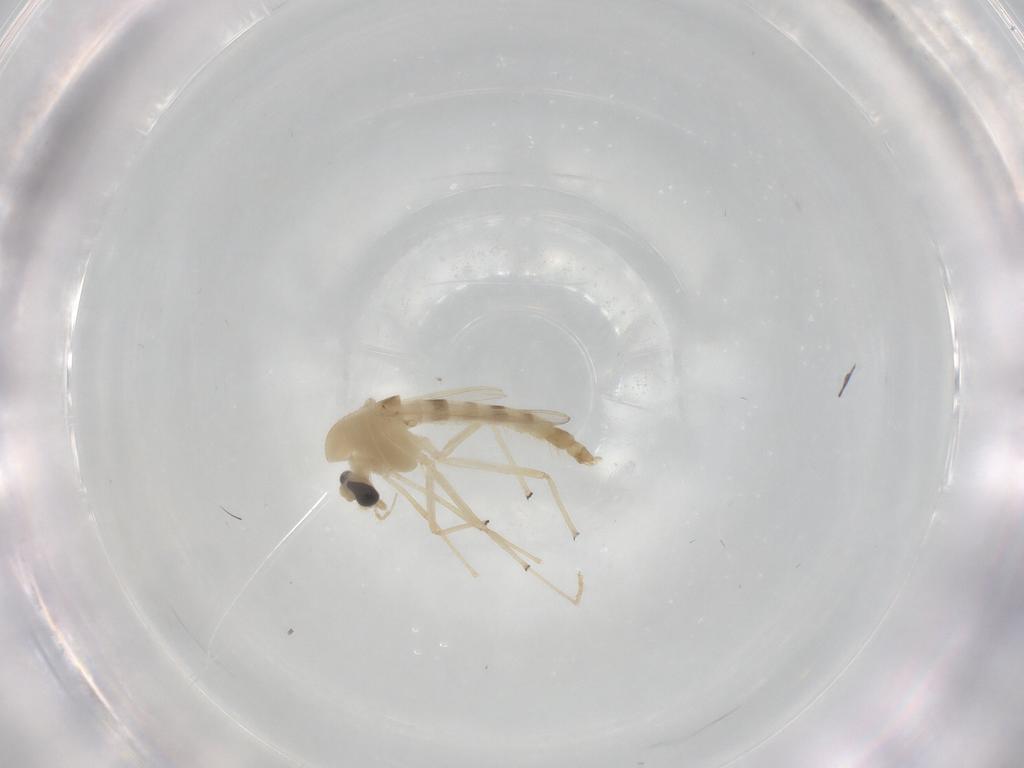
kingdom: Animalia
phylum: Arthropoda
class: Insecta
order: Diptera
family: Chironomidae
